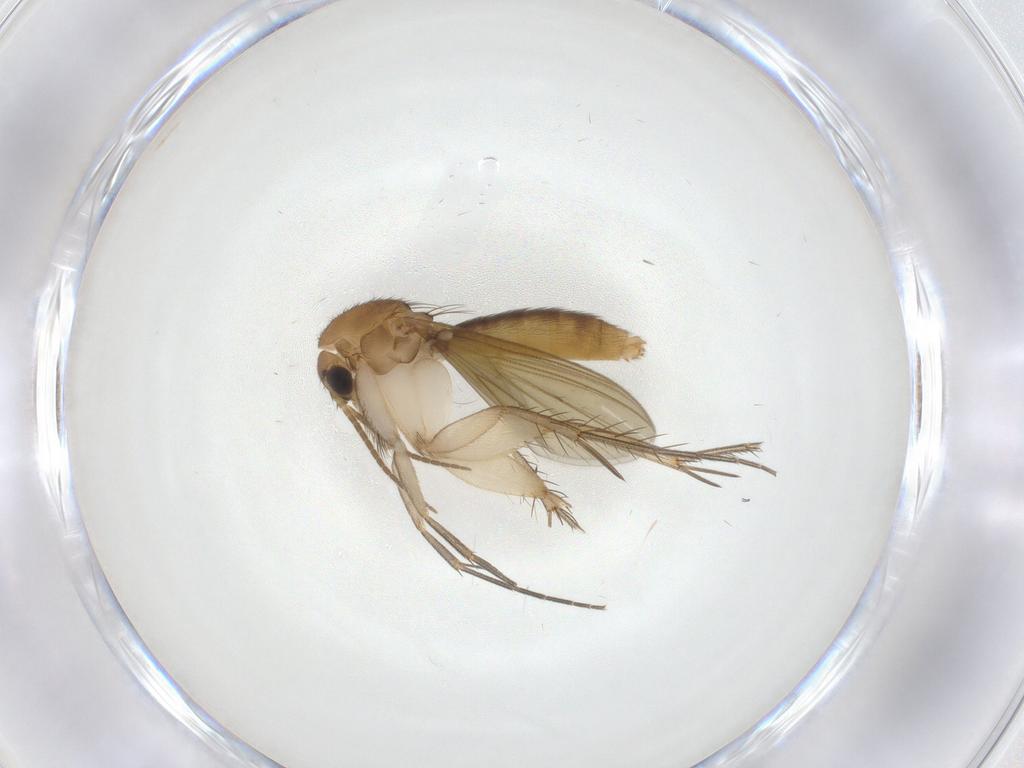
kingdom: Animalia
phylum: Arthropoda
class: Insecta
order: Diptera
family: Mycetophilidae
